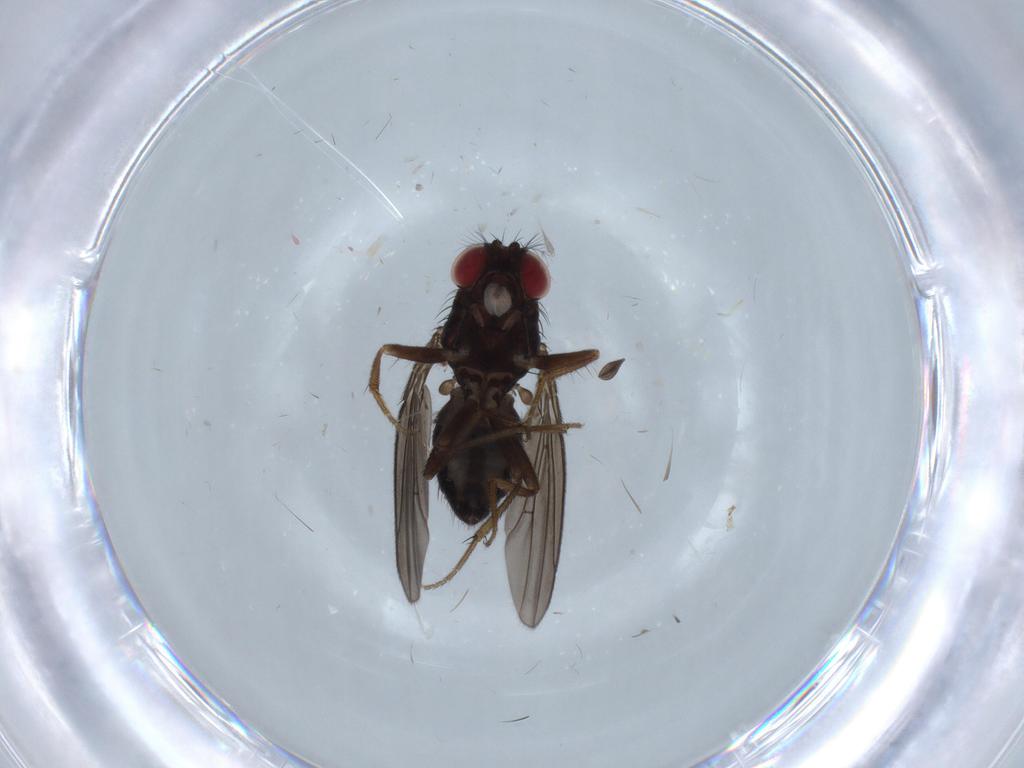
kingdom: Animalia
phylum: Arthropoda
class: Insecta
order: Diptera
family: Drosophilidae
